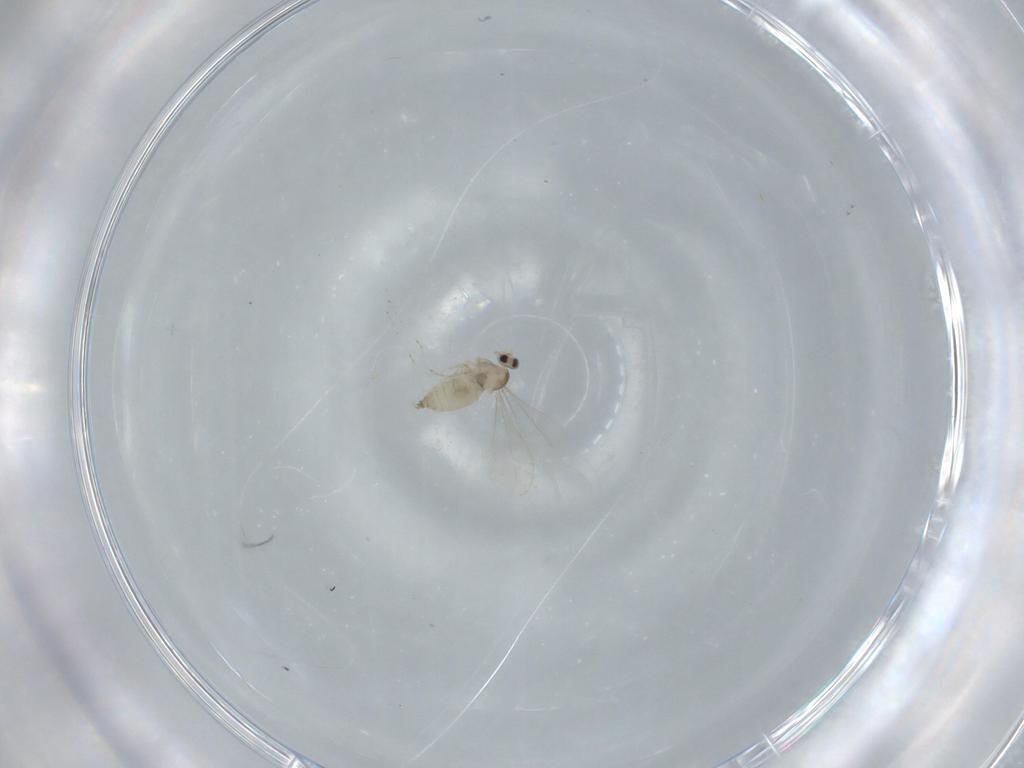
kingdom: Animalia
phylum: Arthropoda
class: Insecta
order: Diptera
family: Cecidomyiidae
